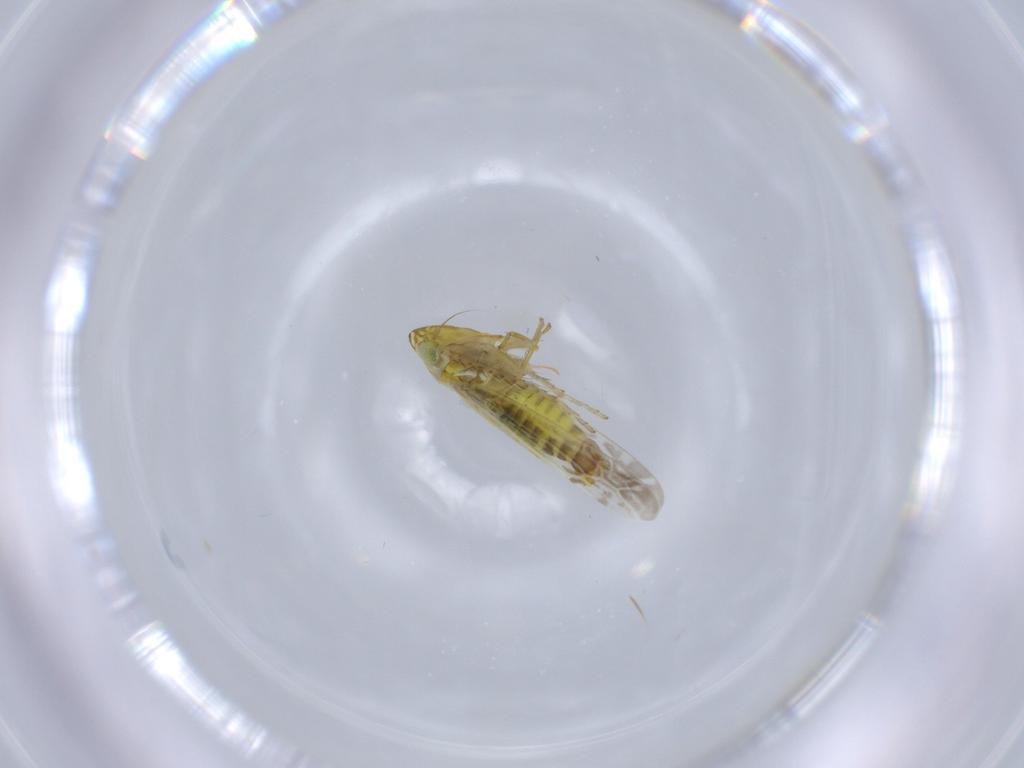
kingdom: Animalia
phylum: Arthropoda
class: Insecta
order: Hemiptera
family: Cicadellidae
